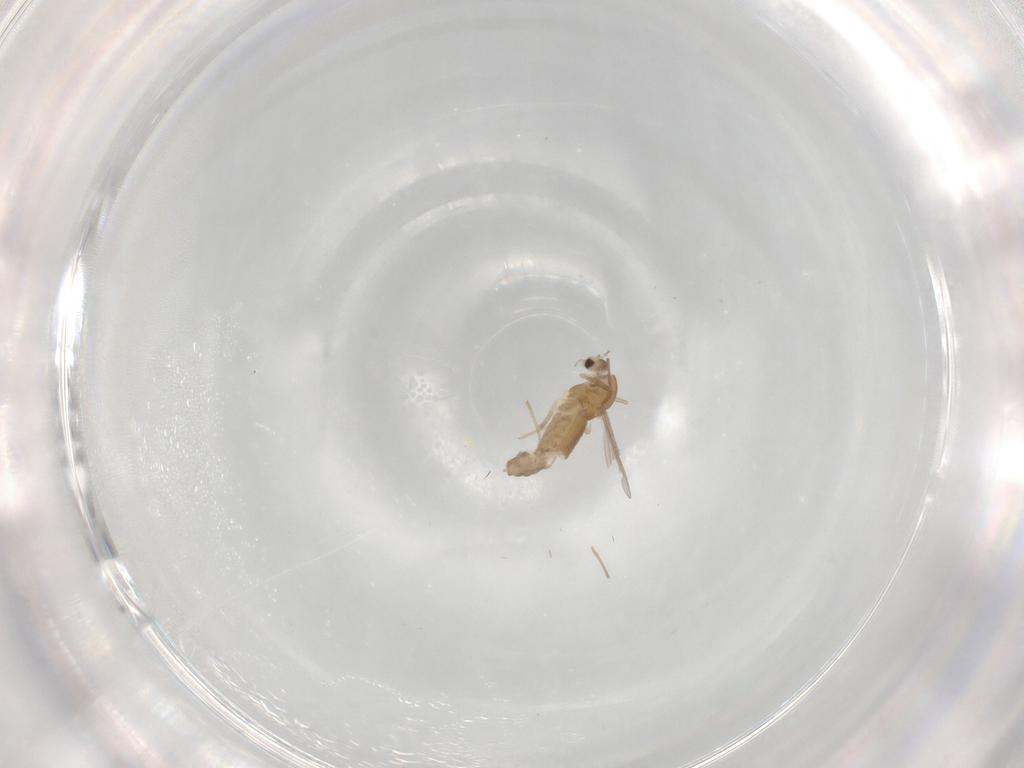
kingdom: Animalia
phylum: Arthropoda
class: Insecta
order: Diptera
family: Chironomidae
